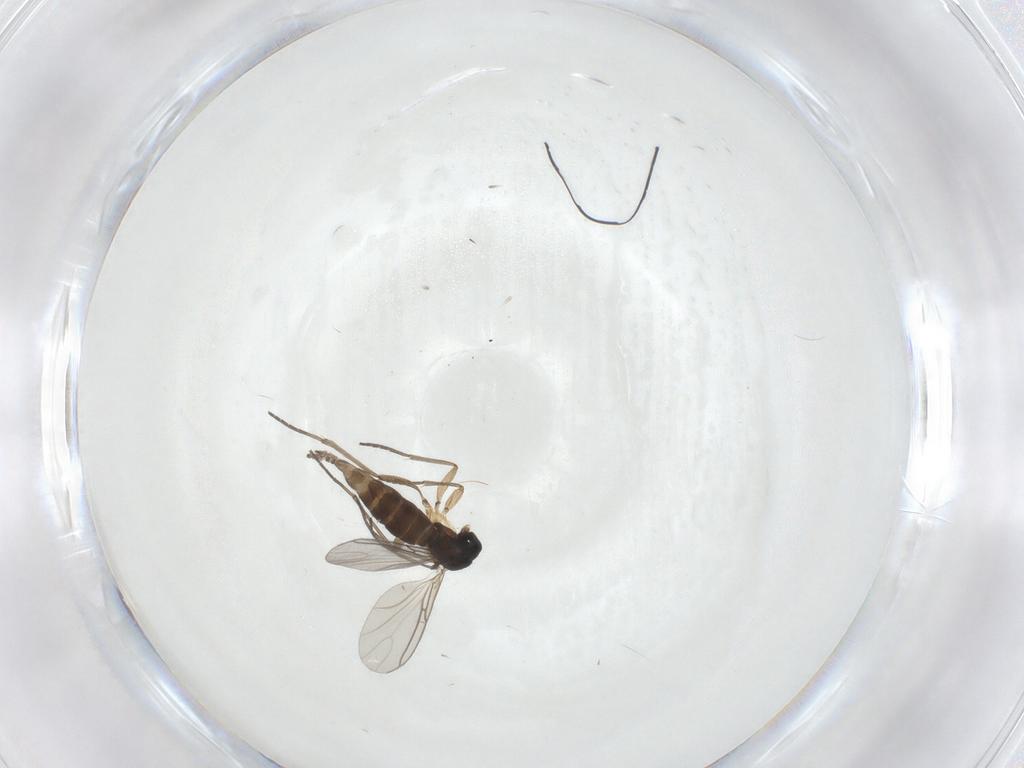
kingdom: Animalia
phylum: Arthropoda
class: Insecta
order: Diptera
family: Sciaridae
